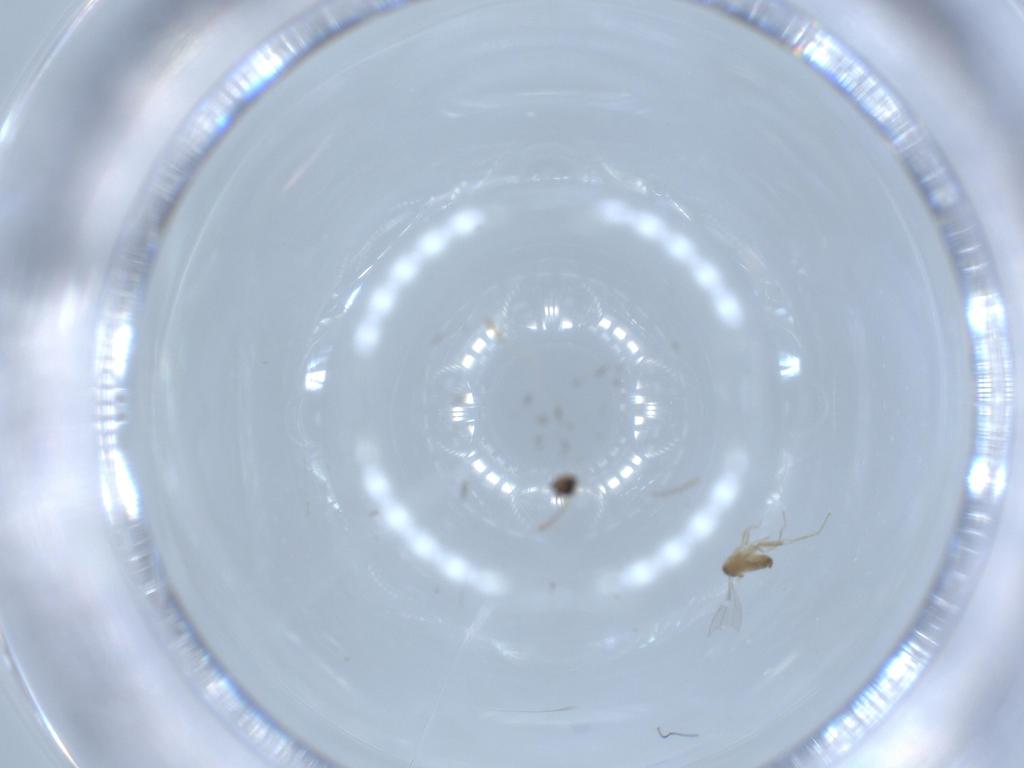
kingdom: Animalia
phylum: Arthropoda
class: Insecta
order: Diptera
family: Cecidomyiidae
